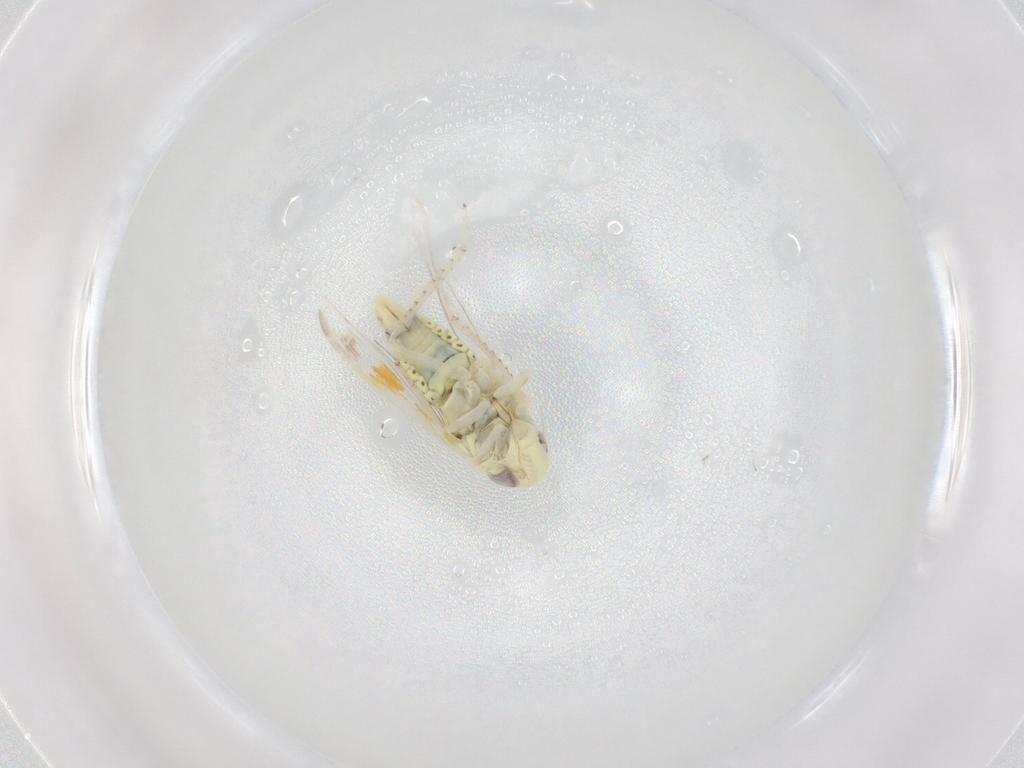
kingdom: Animalia
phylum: Arthropoda
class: Insecta
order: Hemiptera
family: Cicadellidae
